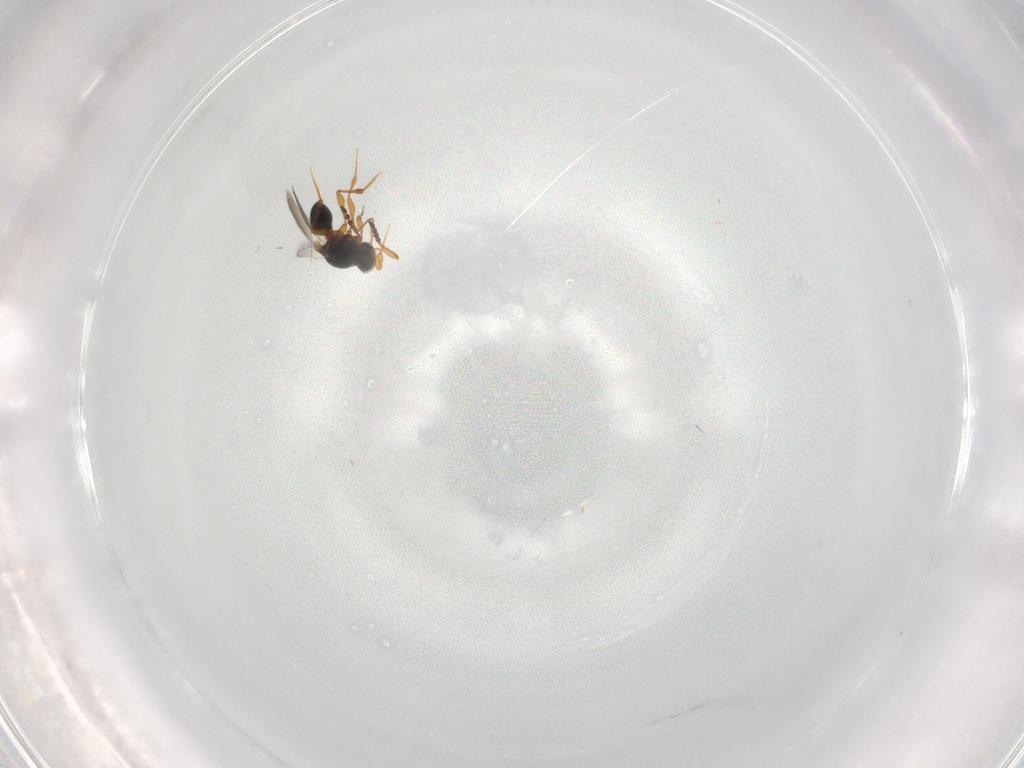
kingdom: Animalia
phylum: Arthropoda
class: Insecta
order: Hymenoptera
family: Platygastridae
